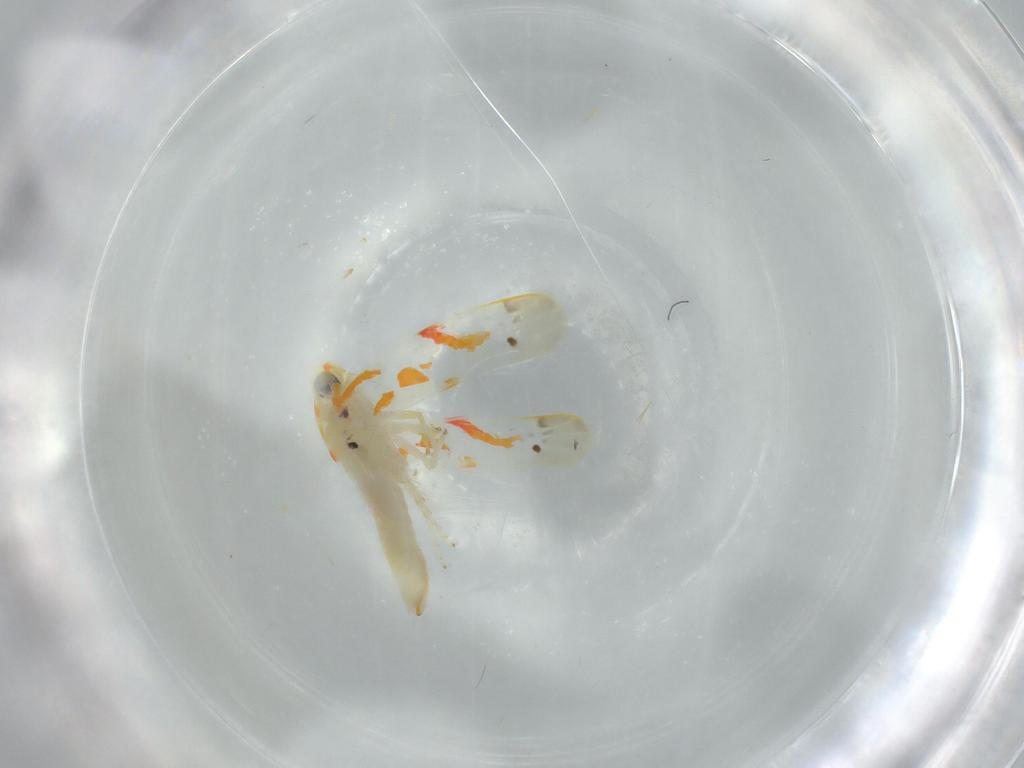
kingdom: Animalia
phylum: Arthropoda
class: Insecta
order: Hemiptera
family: Cicadellidae
